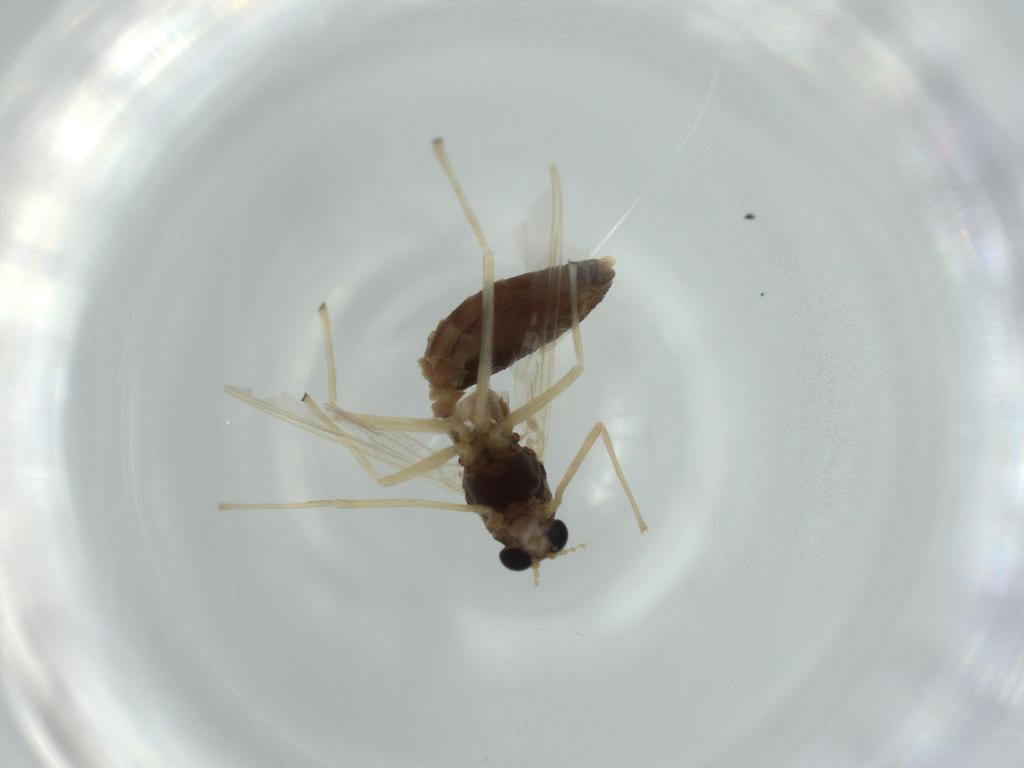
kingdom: Animalia
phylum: Arthropoda
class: Insecta
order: Diptera
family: Chironomidae
